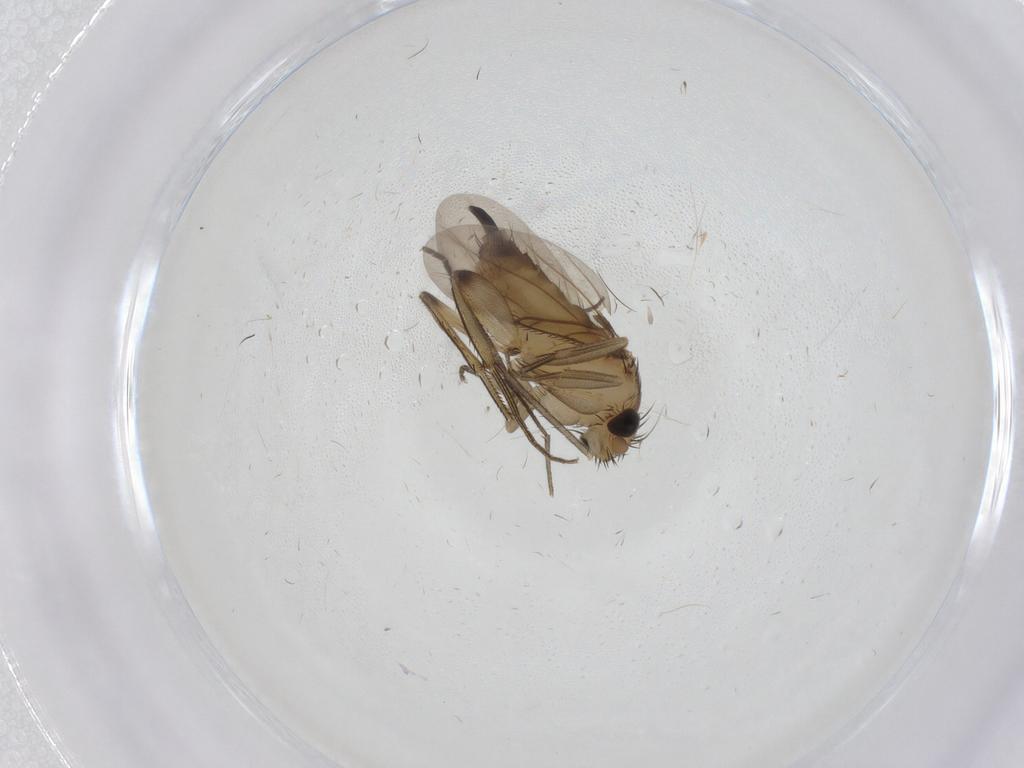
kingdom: Animalia
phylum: Arthropoda
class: Insecta
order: Diptera
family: Phoridae
